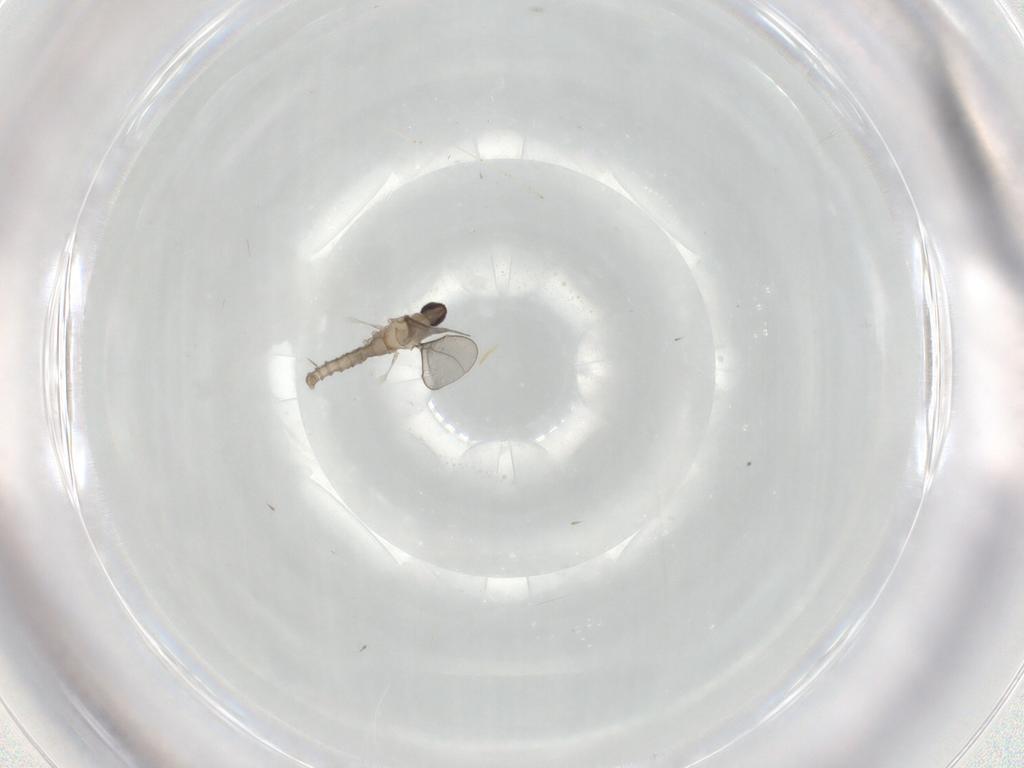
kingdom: Animalia
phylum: Arthropoda
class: Insecta
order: Diptera
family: Cecidomyiidae
